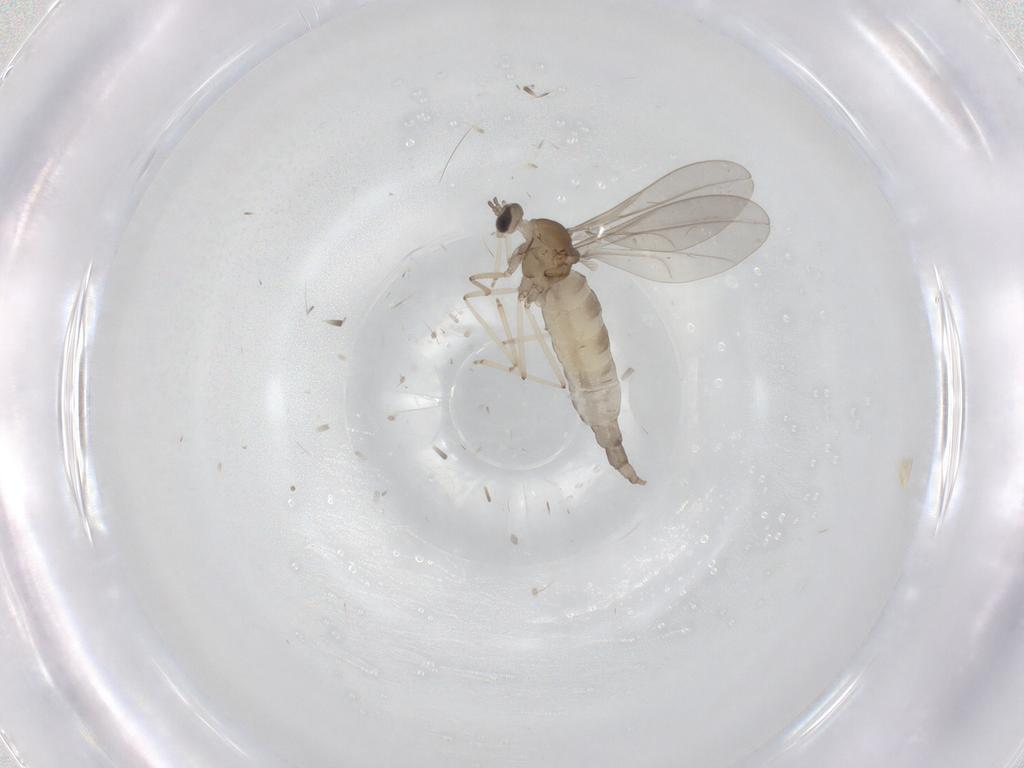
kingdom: Animalia
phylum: Arthropoda
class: Insecta
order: Diptera
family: Cecidomyiidae
